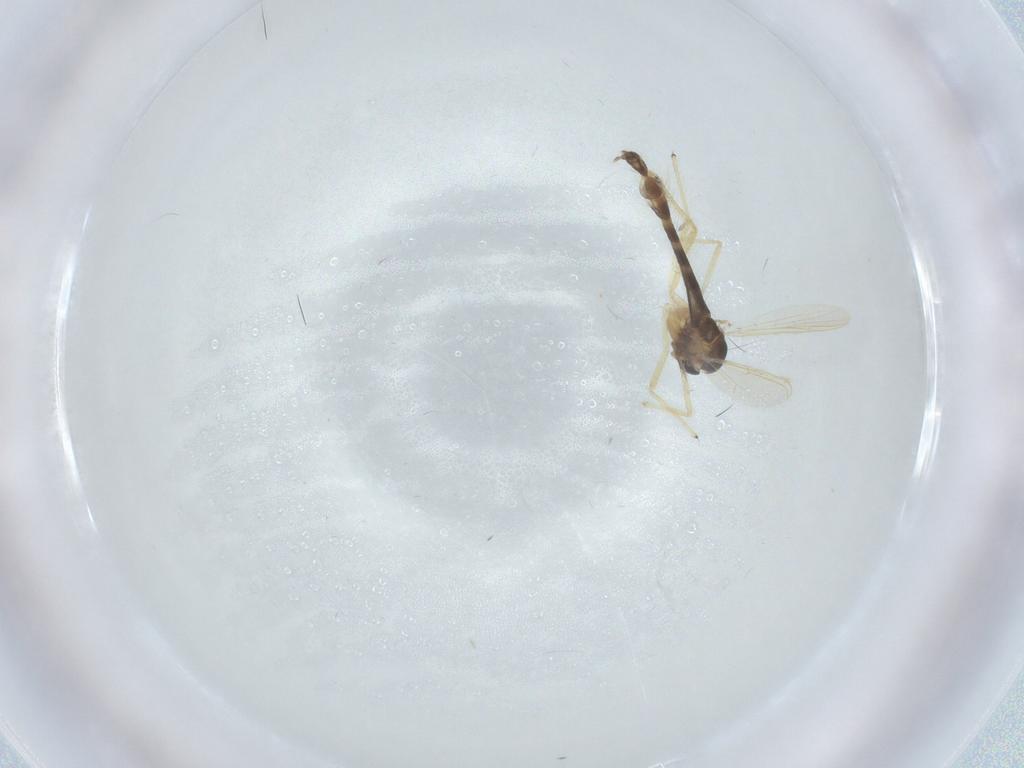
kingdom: Animalia
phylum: Arthropoda
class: Insecta
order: Diptera
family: Chironomidae
